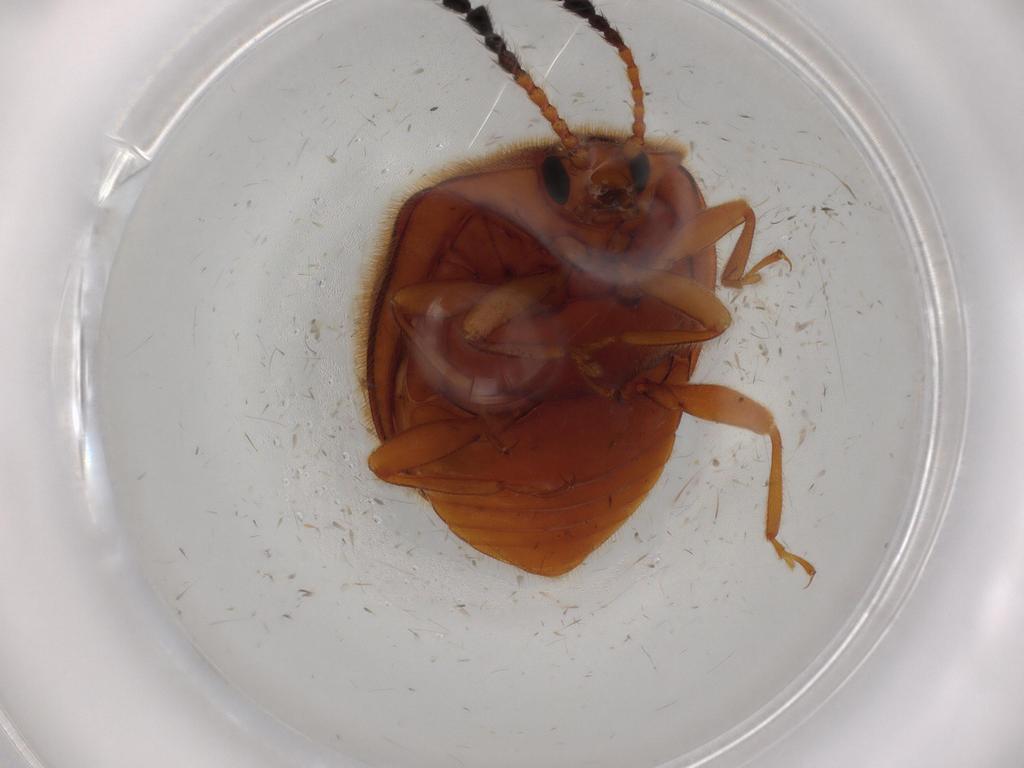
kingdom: Animalia
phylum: Arthropoda
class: Insecta
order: Coleoptera
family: Endomychidae
